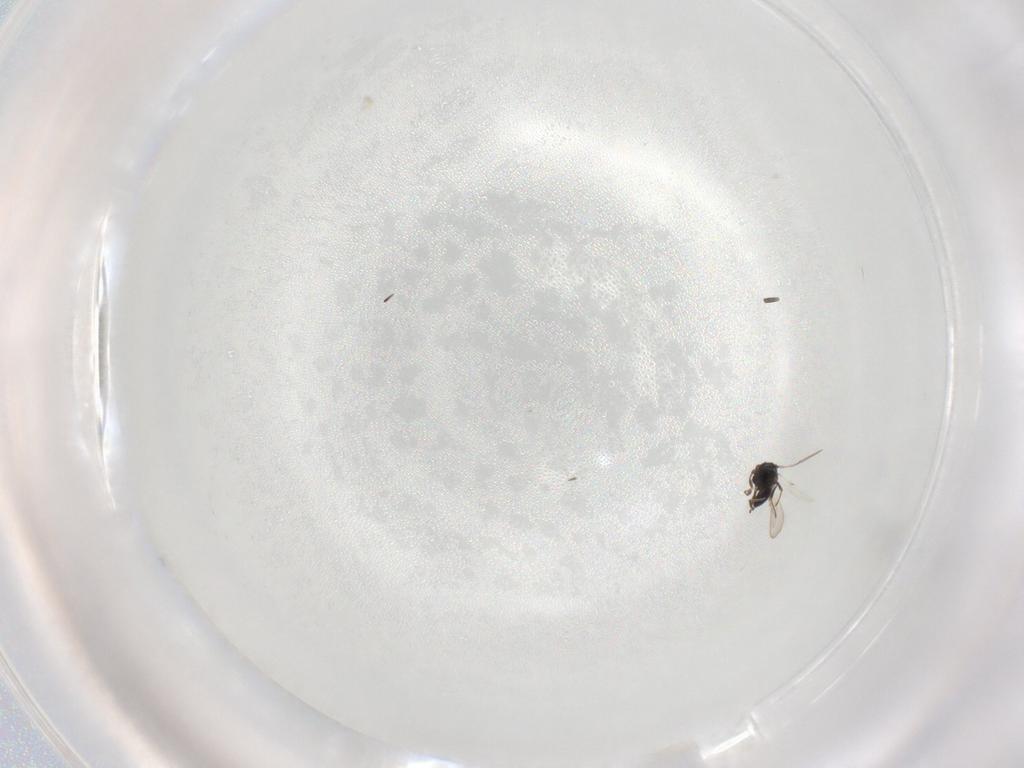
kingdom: Animalia
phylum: Arthropoda
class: Insecta
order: Hymenoptera
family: Scelionidae
